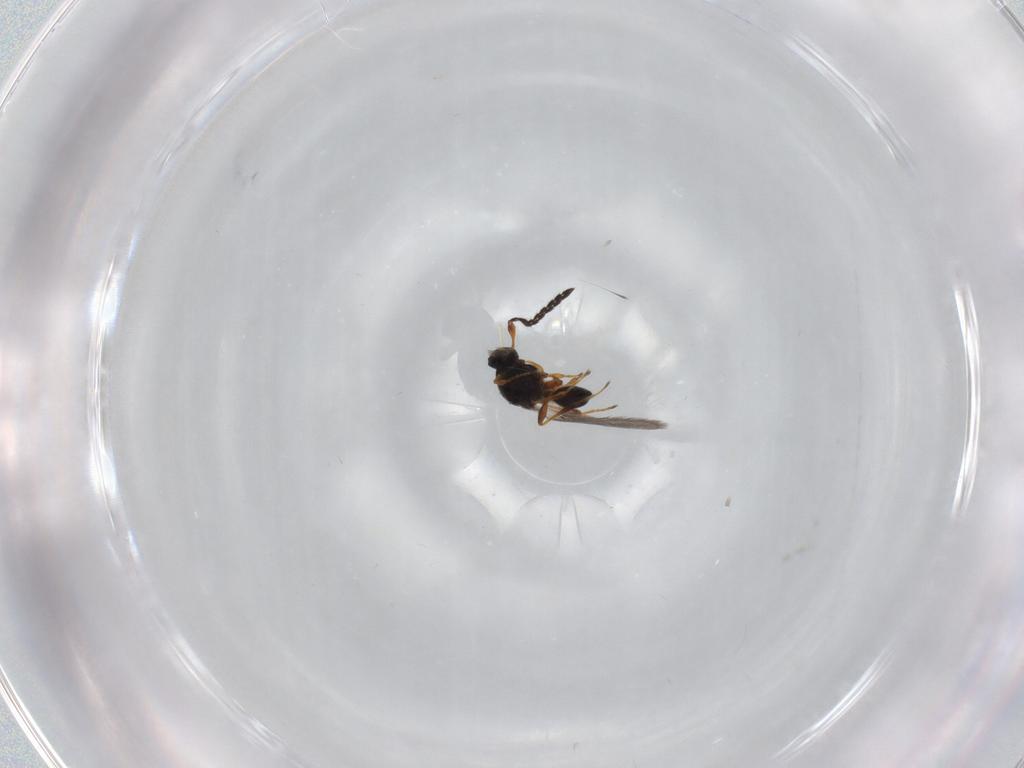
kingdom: Animalia
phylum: Arthropoda
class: Insecta
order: Hymenoptera
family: Platygastridae
